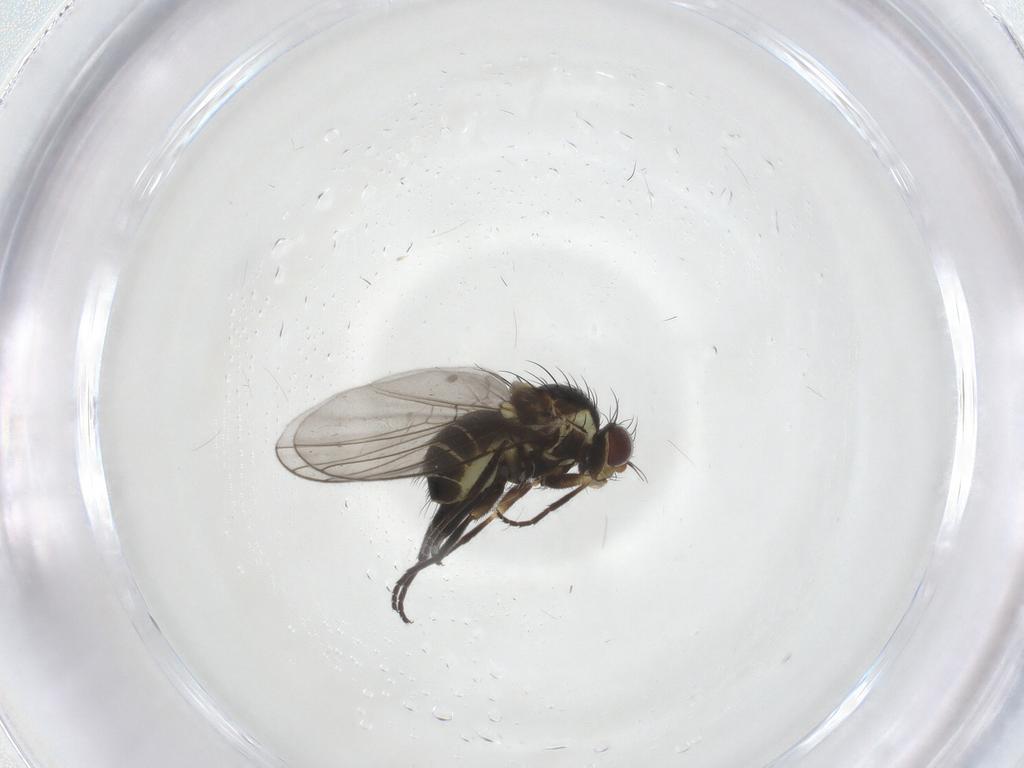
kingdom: Animalia
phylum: Arthropoda
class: Insecta
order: Diptera
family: Agromyzidae
